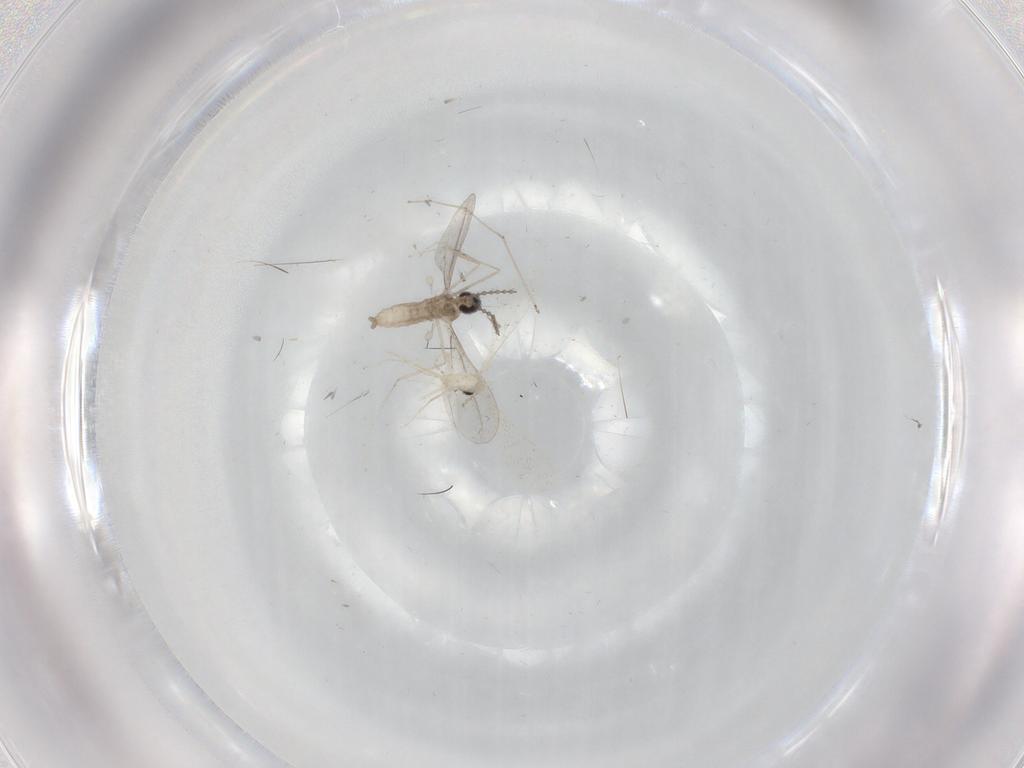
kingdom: Animalia
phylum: Arthropoda
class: Insecta
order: Diptera
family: Cecidomyiidae
